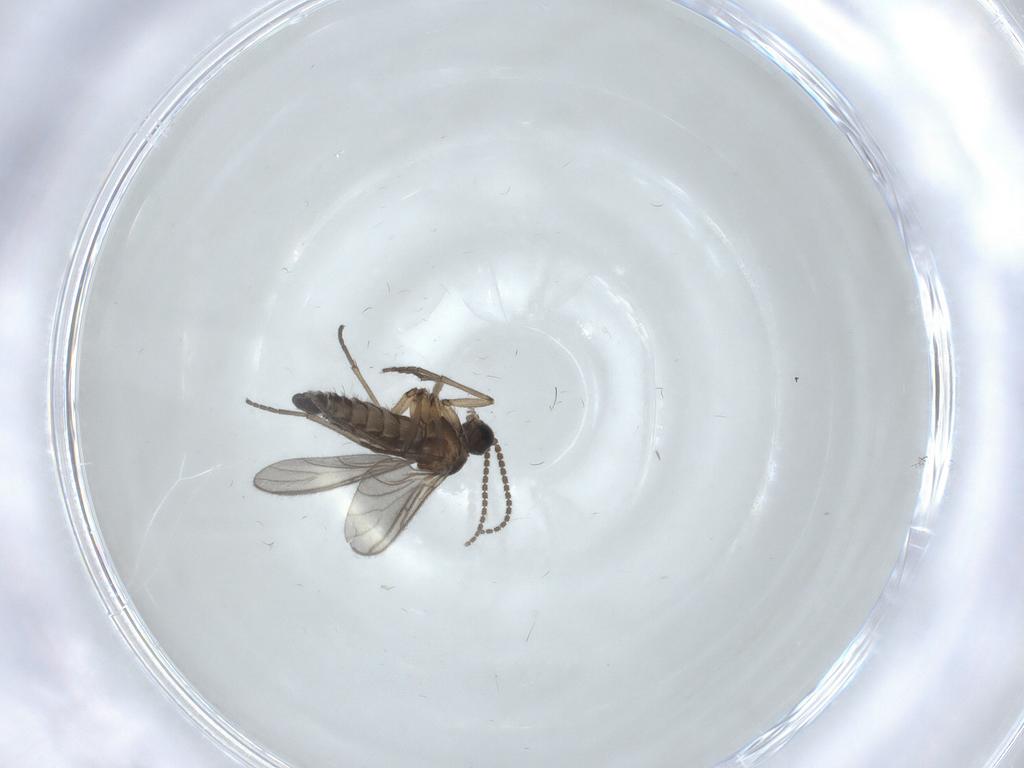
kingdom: Animalia
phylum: Arthropoda
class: Insecta
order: Diptera
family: Sciaridae
